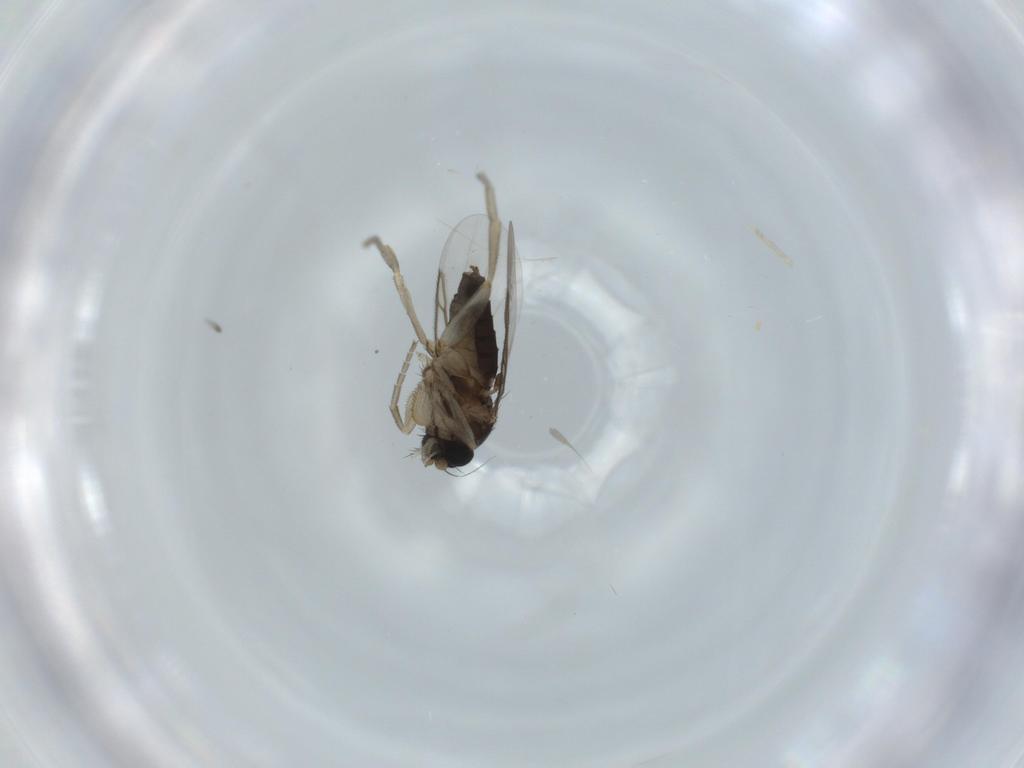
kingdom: Animalia
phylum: Arthropoda
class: Insecta
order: Diptera
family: Phoridae
